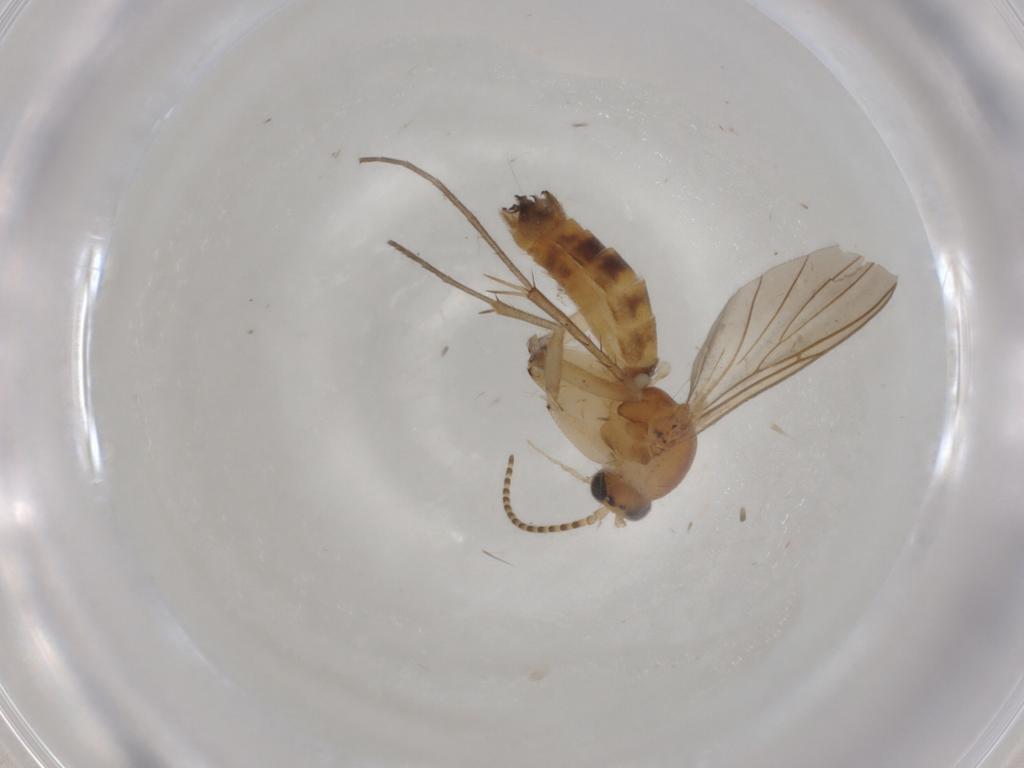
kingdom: Animalia
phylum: Arthropoda
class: Insecta
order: Diptera
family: Mycetophilidae
